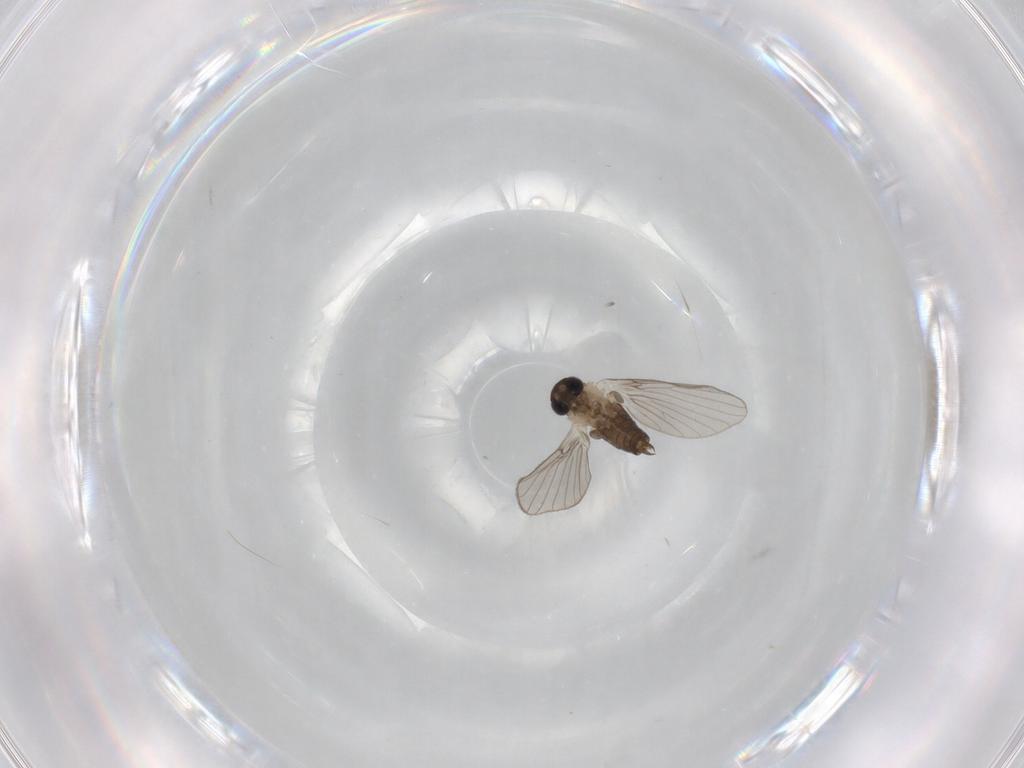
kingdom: Animalia
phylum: Arthropoda
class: Insecta
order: Diptera
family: Psychodidae
